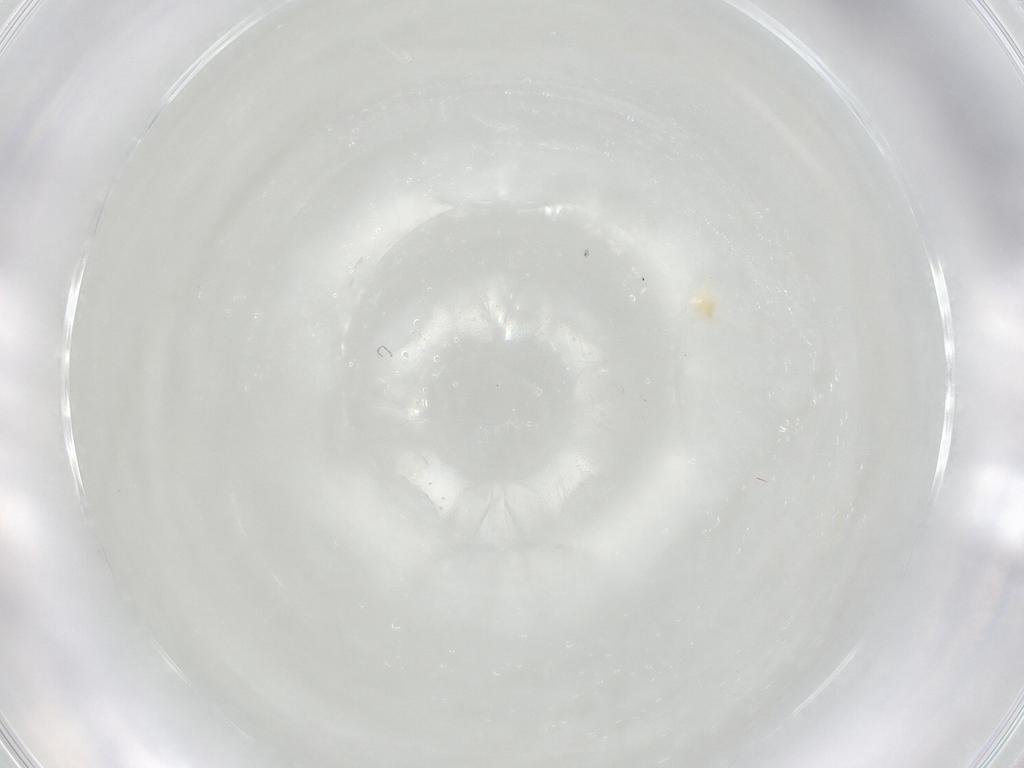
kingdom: Animalia
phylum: Arthropoda
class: Arachnida
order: Trombidiformes
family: Anystidae
